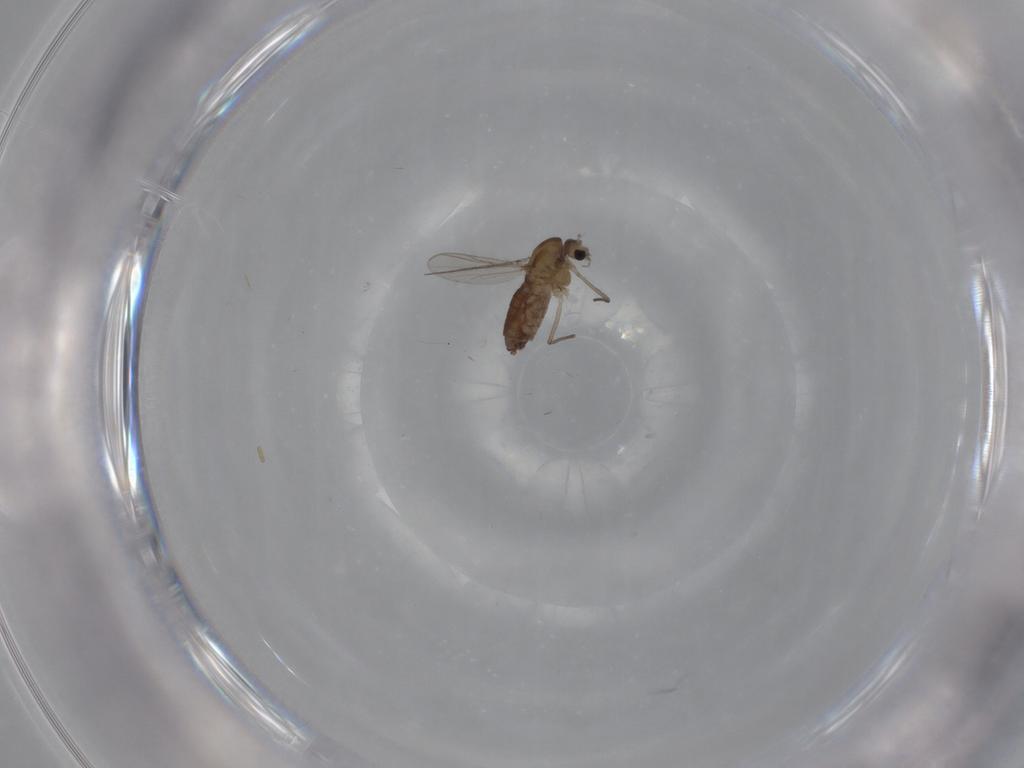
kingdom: Animalia
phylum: Arthropoda
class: Insecta
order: Diptera
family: Chironomidae
